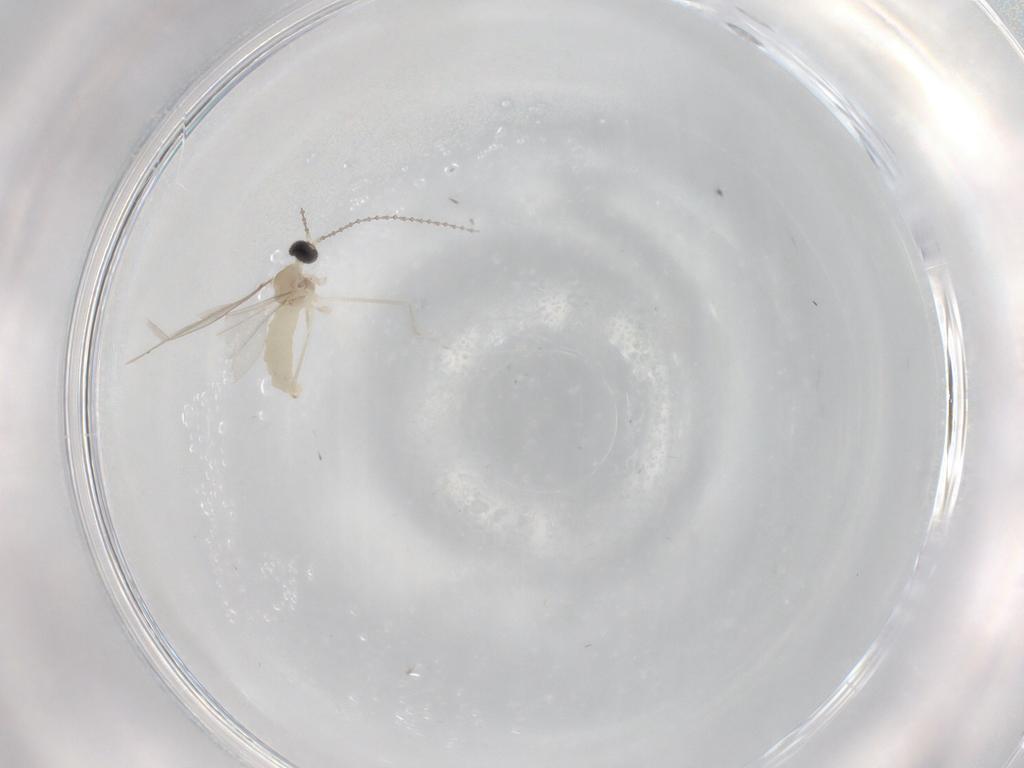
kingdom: Animalia
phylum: Arthropoda
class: Insecta
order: Diptera
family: Cecidomyiidae
